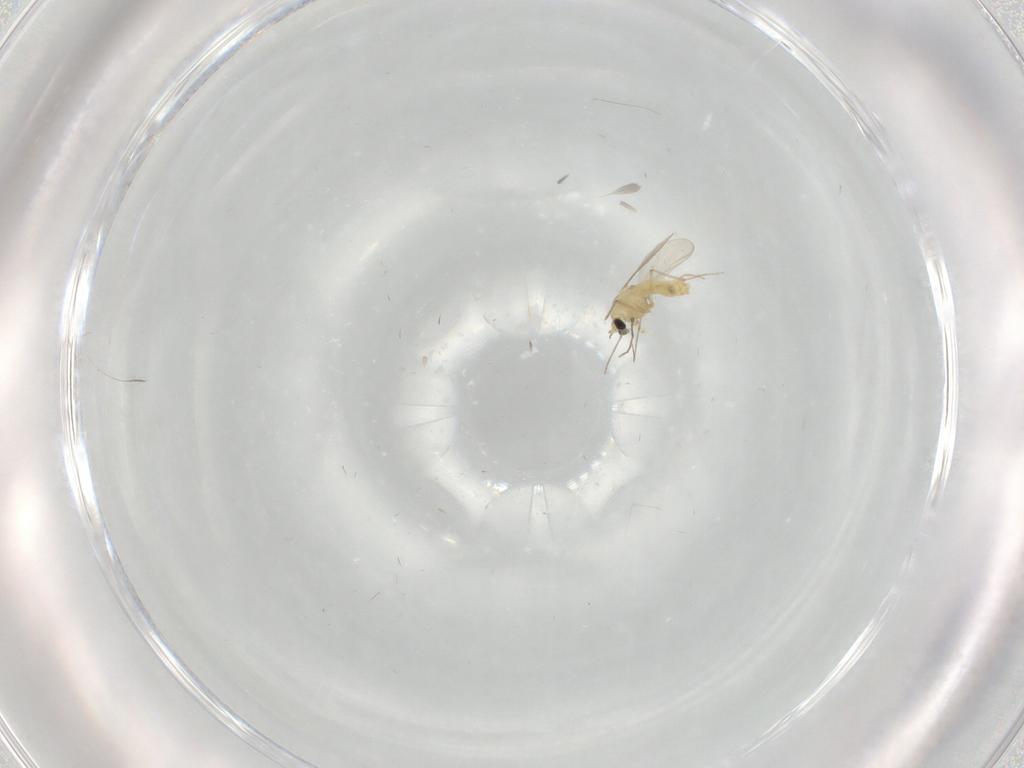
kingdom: Animalia
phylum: Arthropoda
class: Insecta
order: Diptera
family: Chironomidae
